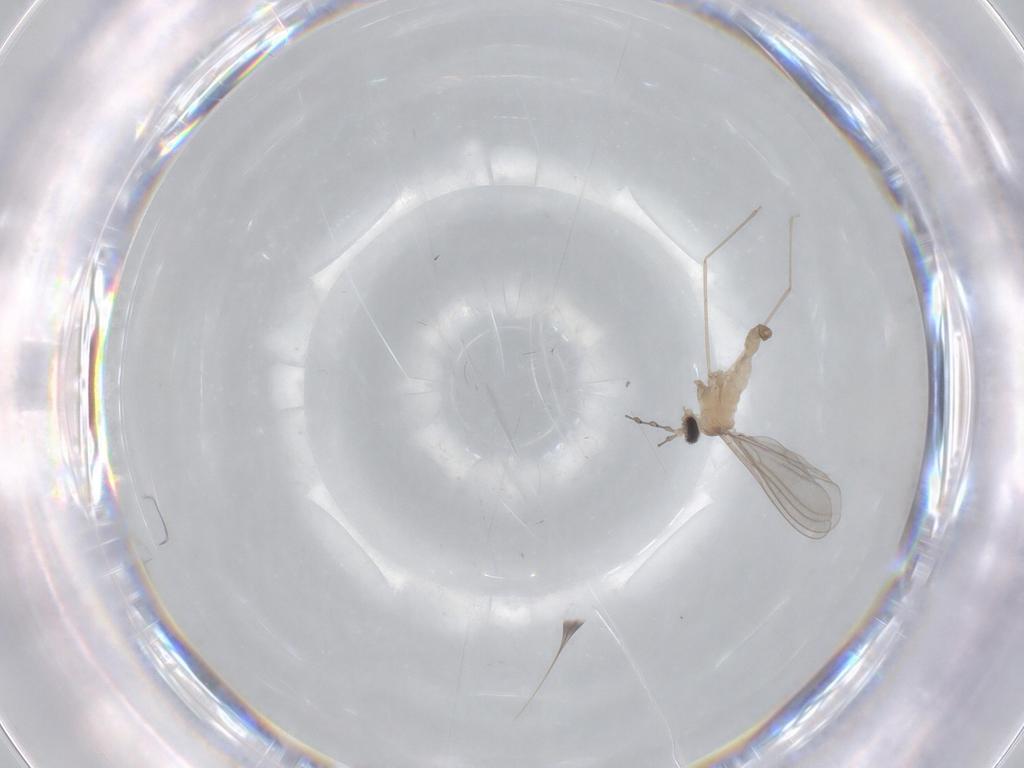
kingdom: Animalia
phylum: Arthropoda
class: Insecta
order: Diptera
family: Cecidomyiidae
